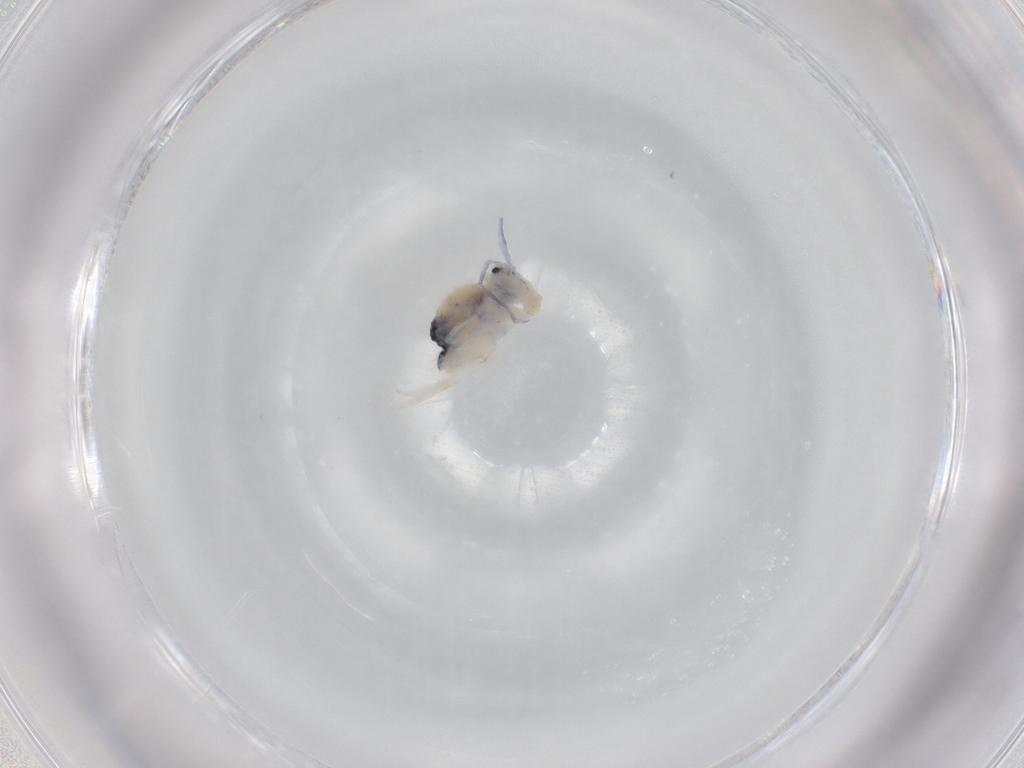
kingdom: Animalia
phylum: Arthropoda
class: Collembola
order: Symphypleona
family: Dicyrtomidae
